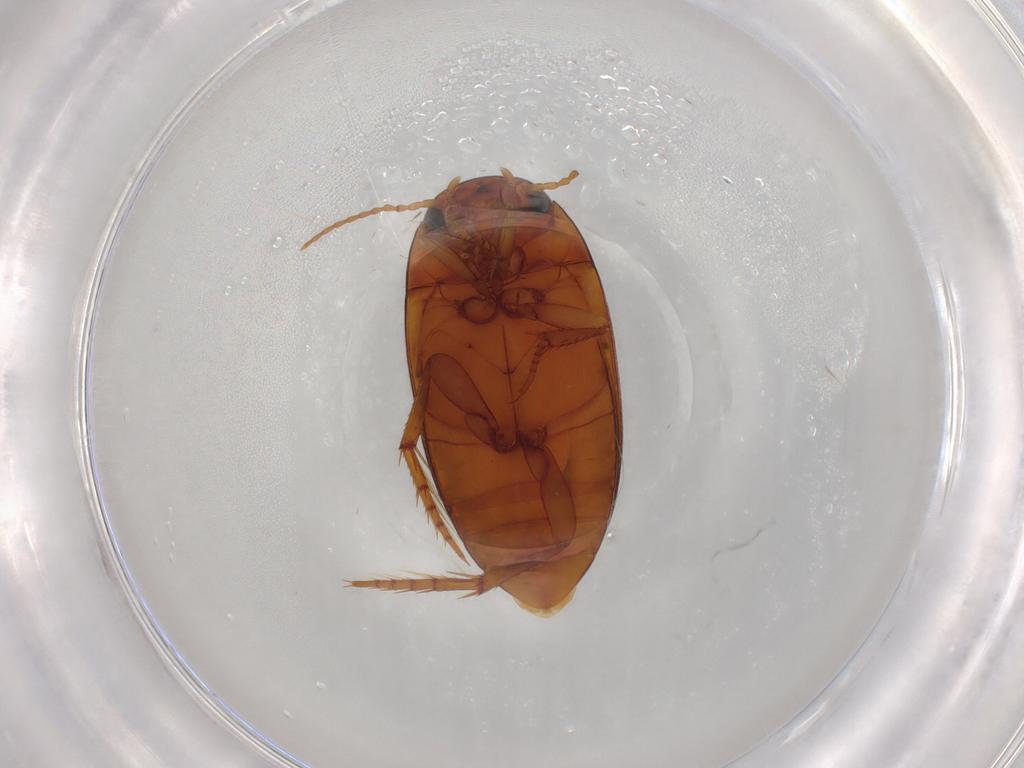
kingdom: Animalia
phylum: Arthropoda
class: Insecta
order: Coleoptera
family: Dytiscidae
